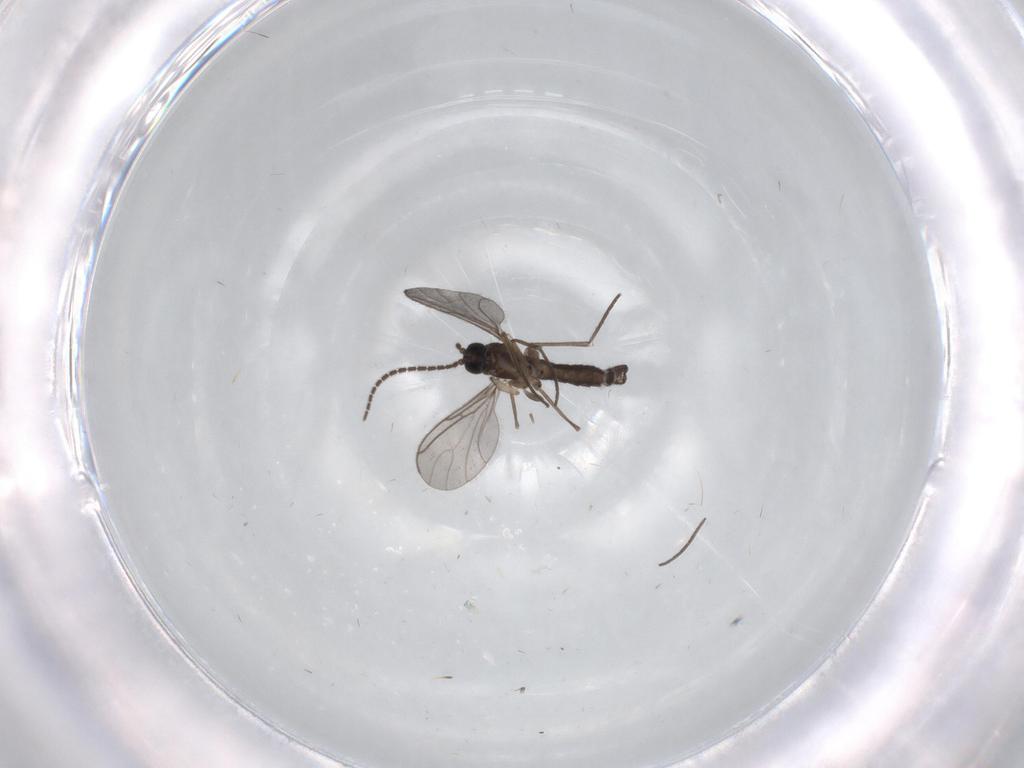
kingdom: Animalia
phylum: Arthropoda
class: Insecta
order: Diptera
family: Sciaridae
